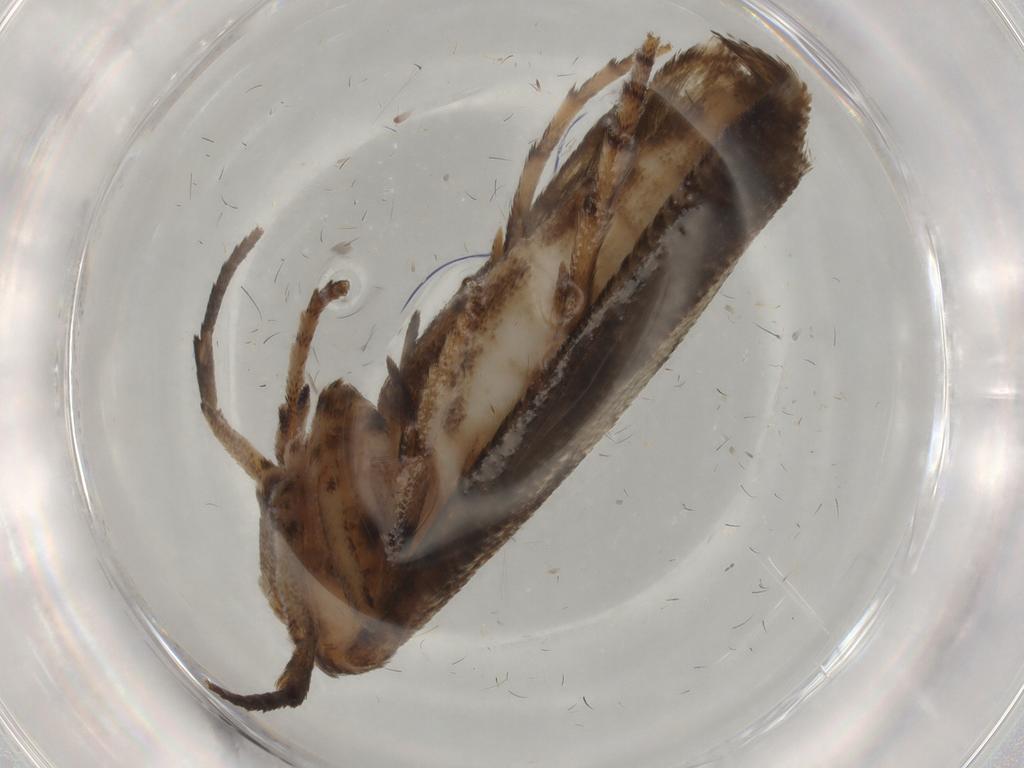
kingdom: Animalia
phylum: Arthropoda
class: Insecta
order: Lepidoptera
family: Yponomeutidae
